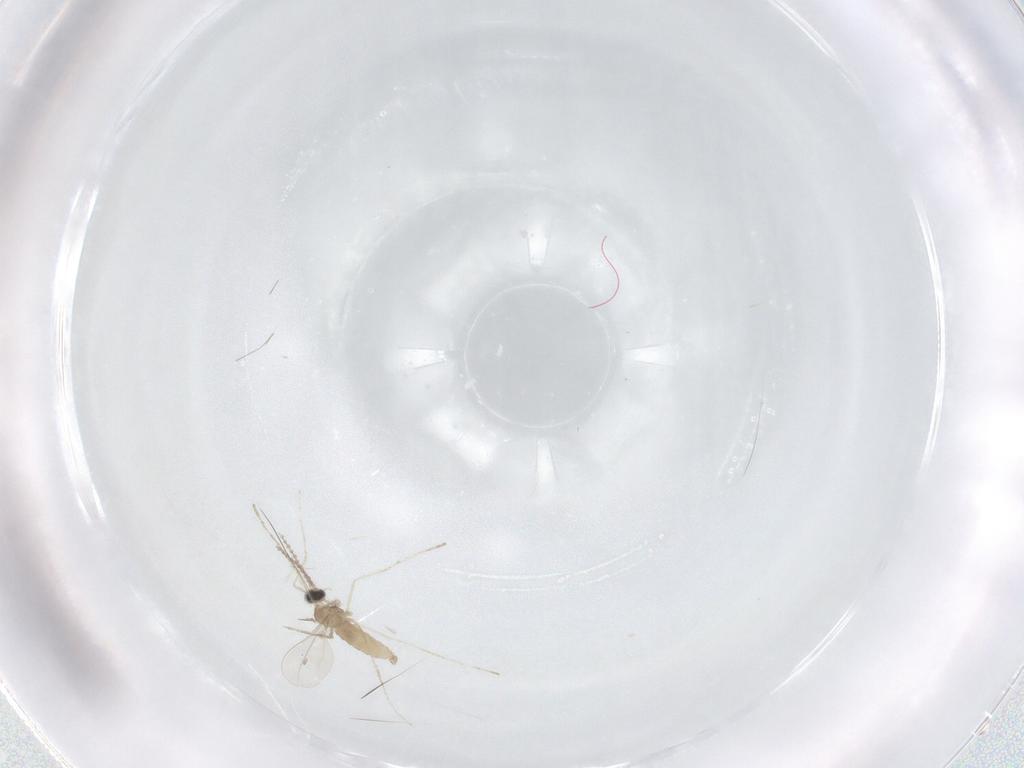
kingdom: Animalia
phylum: Arthropoda
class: Insecta
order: Diptera
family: Cecidomyiidae
